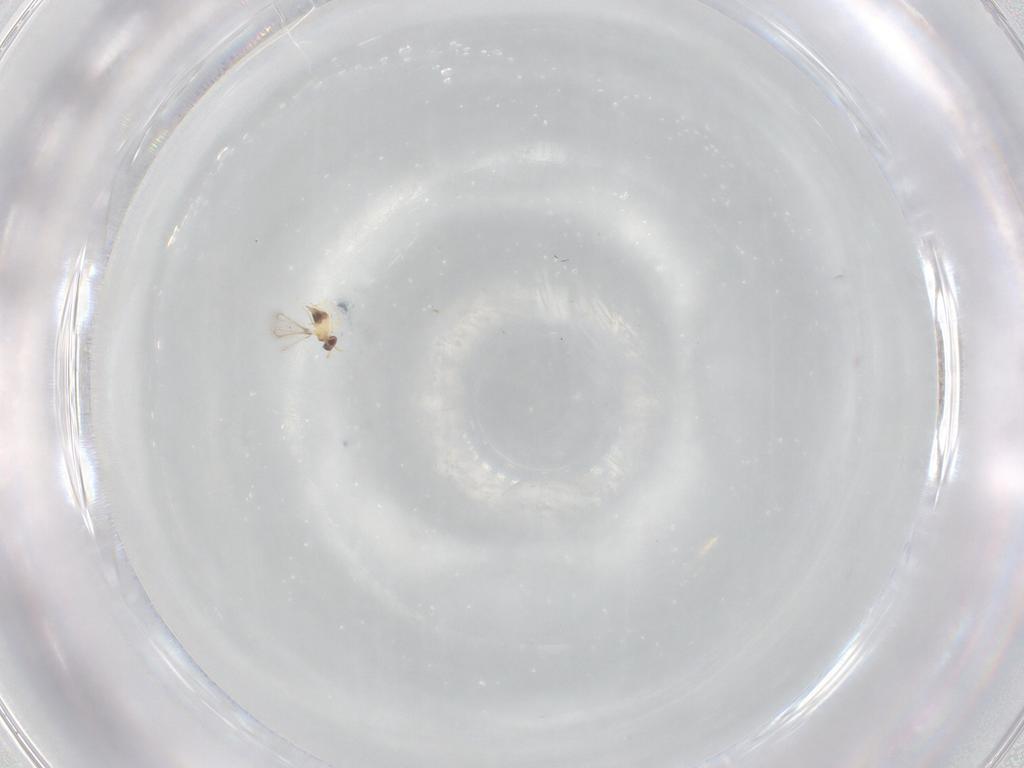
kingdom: Animalia
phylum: Arthropoda
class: Insecta
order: Hymenoptera
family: Mymaridae
